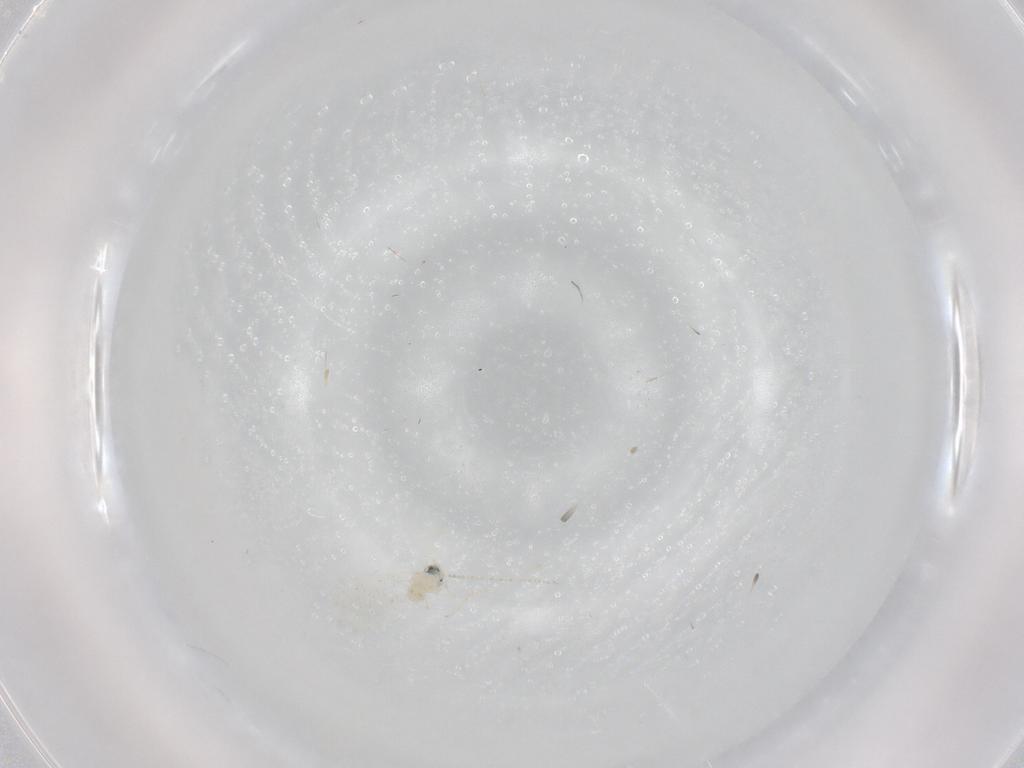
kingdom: Animalia
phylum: Arthropoda
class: Insecta
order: Diptera
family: Cecidomyiidae
